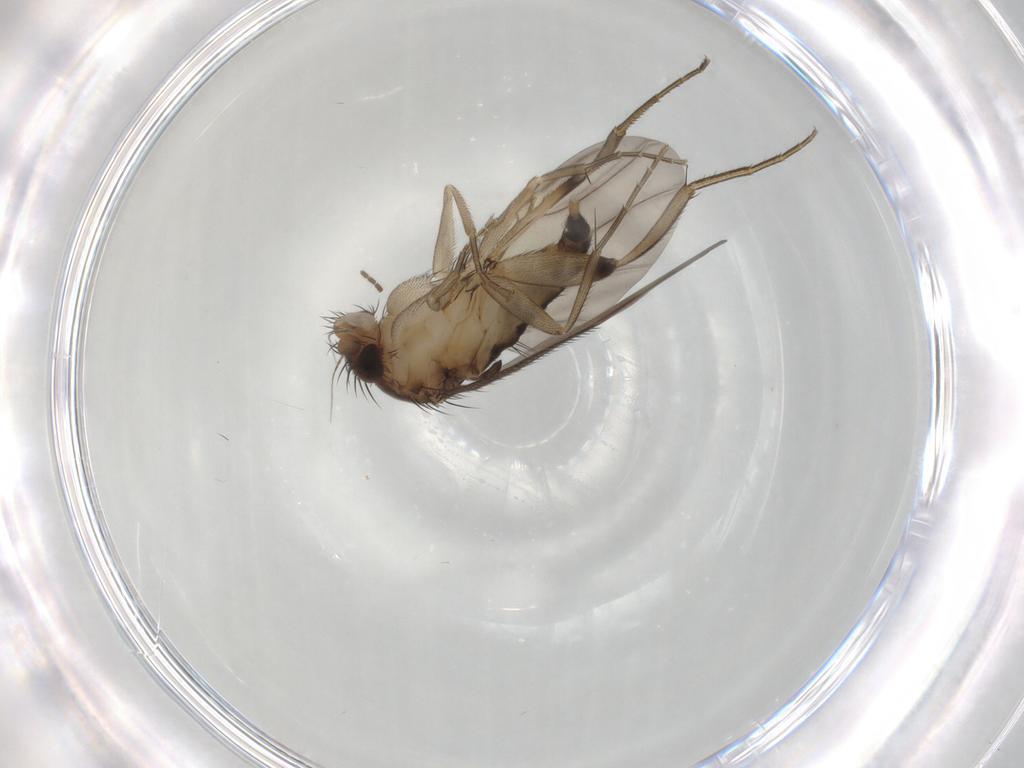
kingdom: Animalia
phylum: Arthropoda
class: Insecta
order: Diptera
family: Phoridae
